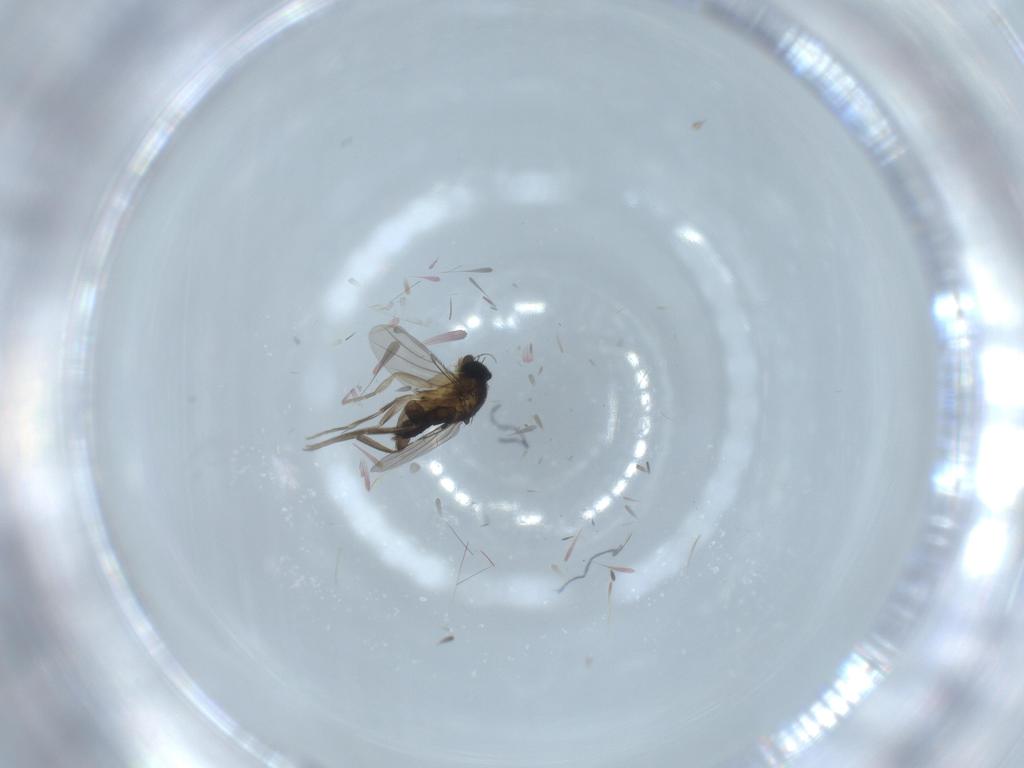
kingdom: Animalia
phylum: Arthropoda
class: Insecta
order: Diptera
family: Phoridae
